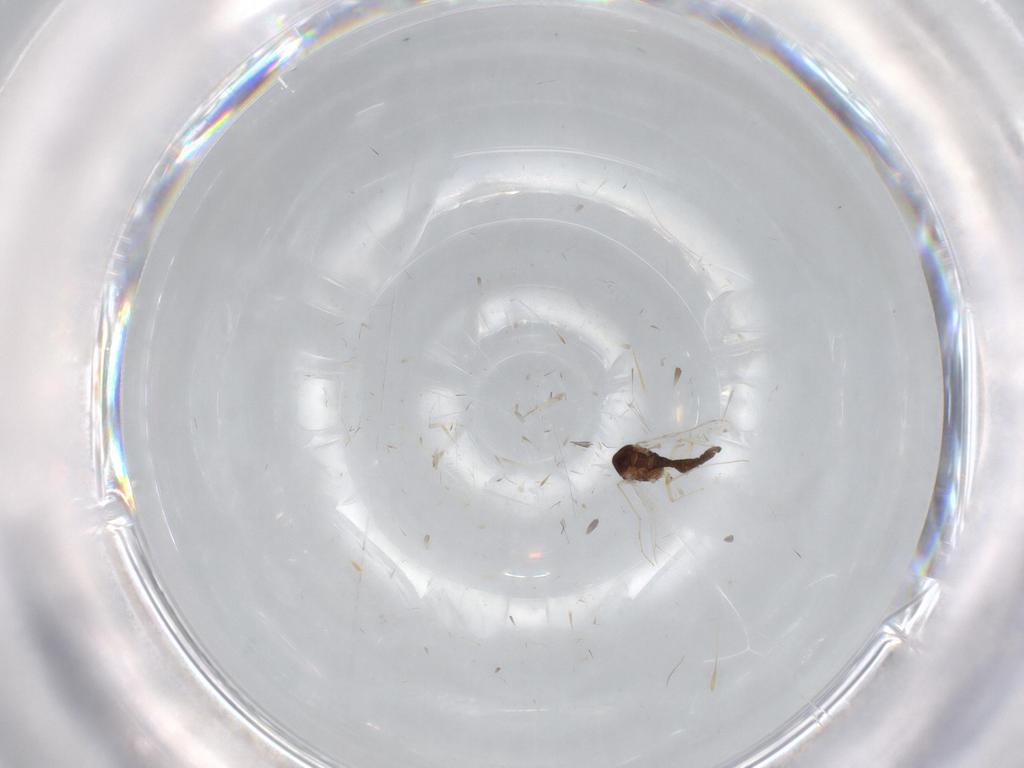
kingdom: Animalia
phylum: Arthropoda
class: Insecta
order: Diptera
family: Chironomidae
